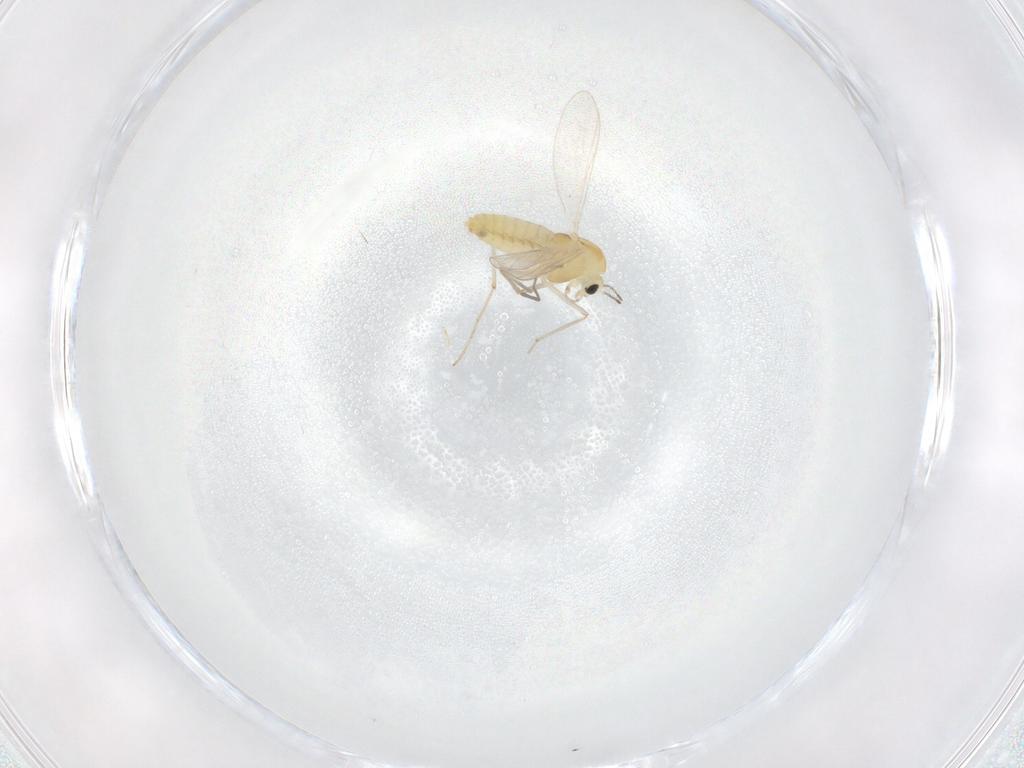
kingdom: Animalia
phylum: Arthropoda
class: Insecta
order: Diptera
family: Chironomidae
